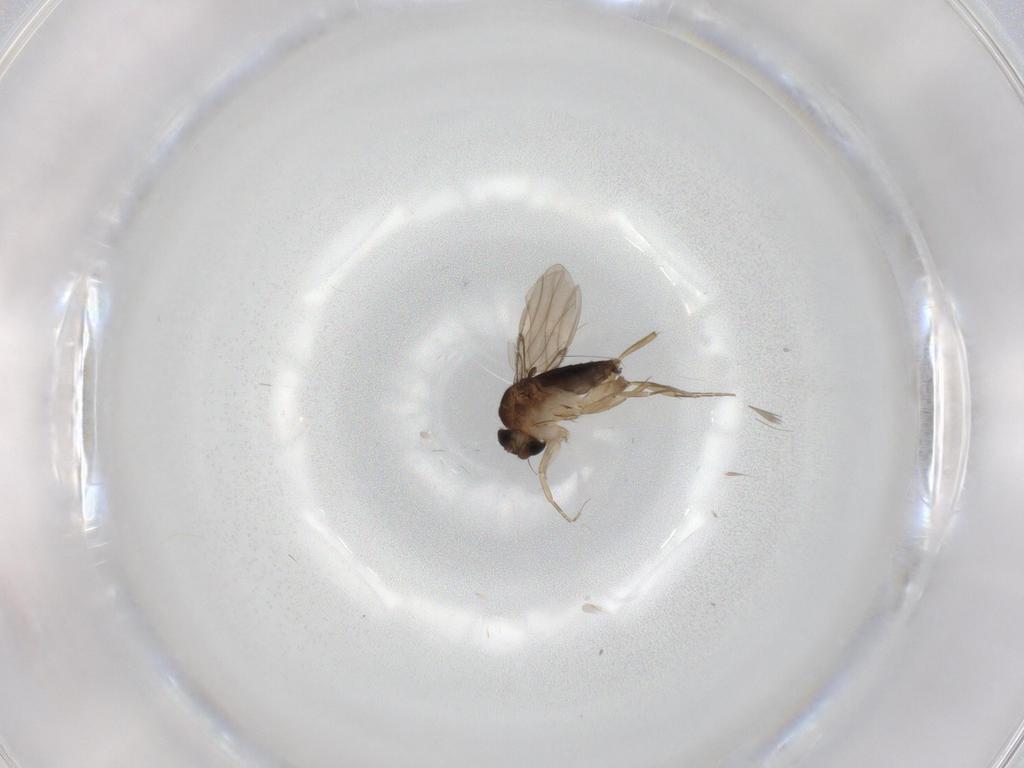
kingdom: Animalia
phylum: Arthropoda
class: Insecta
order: Diptera
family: Phoridae
